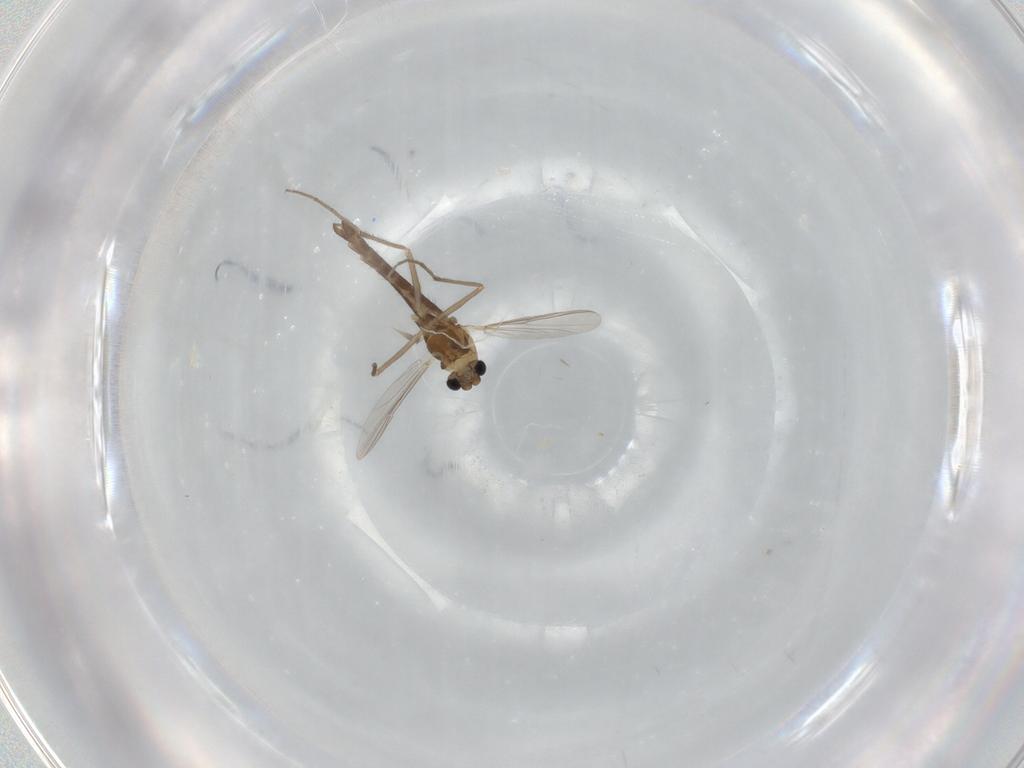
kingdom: Animalia
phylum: Arthropoda
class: Insecta
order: Diptera
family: Chironomidae
